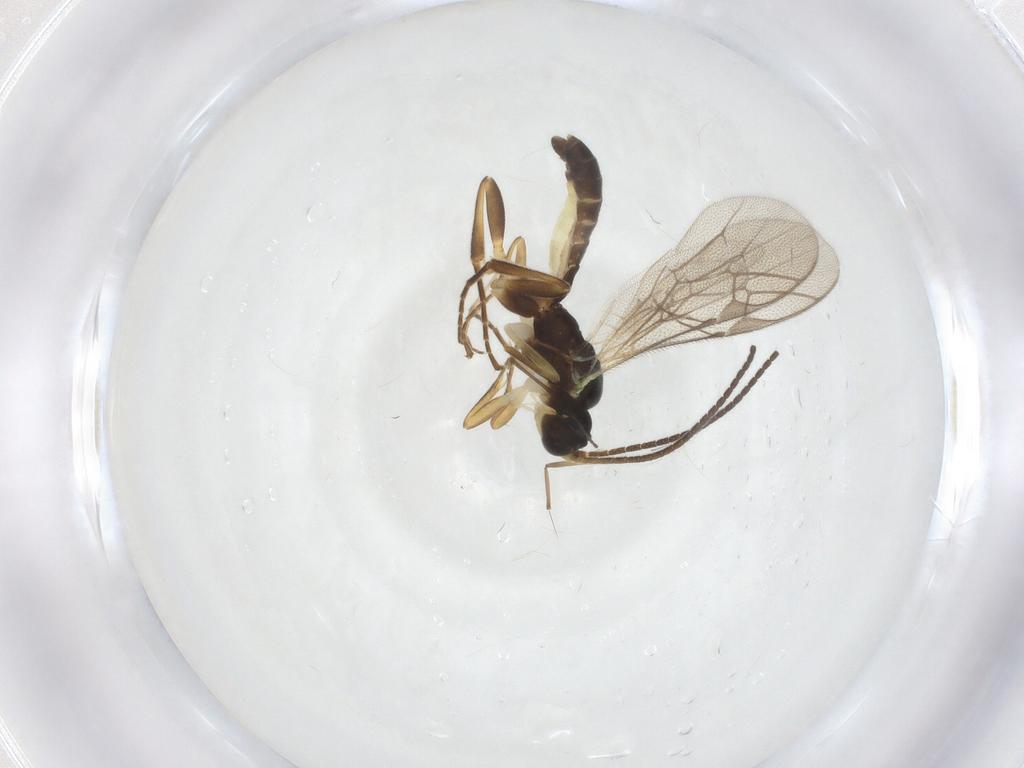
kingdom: Animalia
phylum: Arthropoda
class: Insecta
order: Hymenoptera
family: Ichneumonidae
